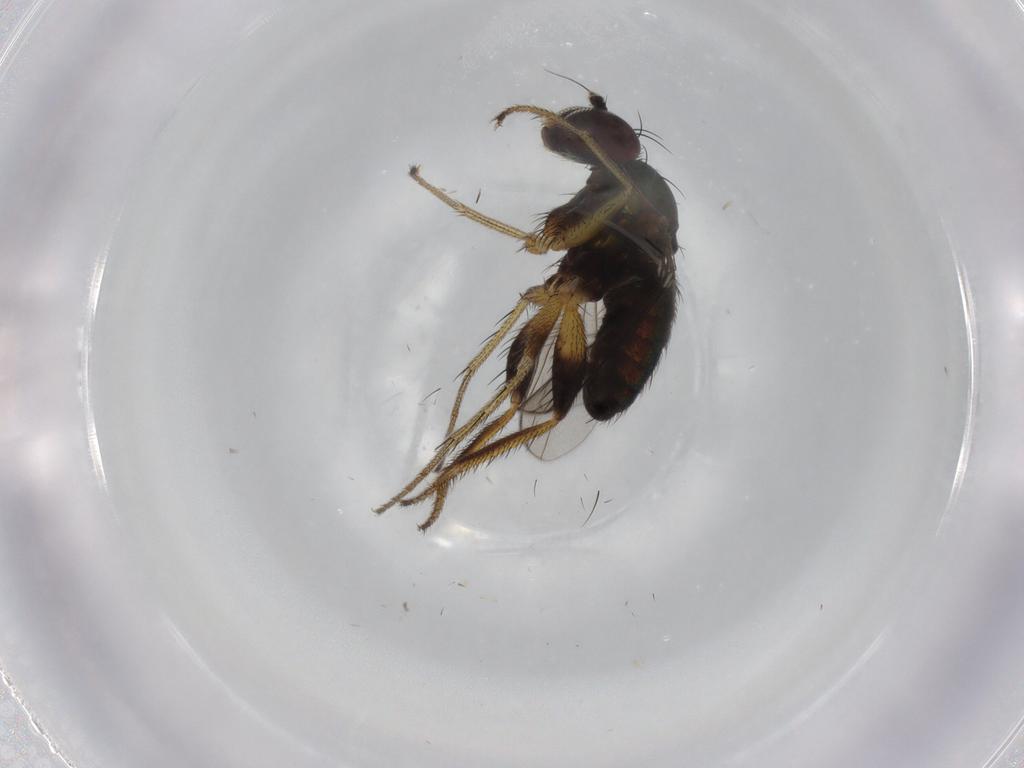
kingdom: Animalia
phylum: Arthropoda
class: Insecta
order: Diptera
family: Dolichopodidae
